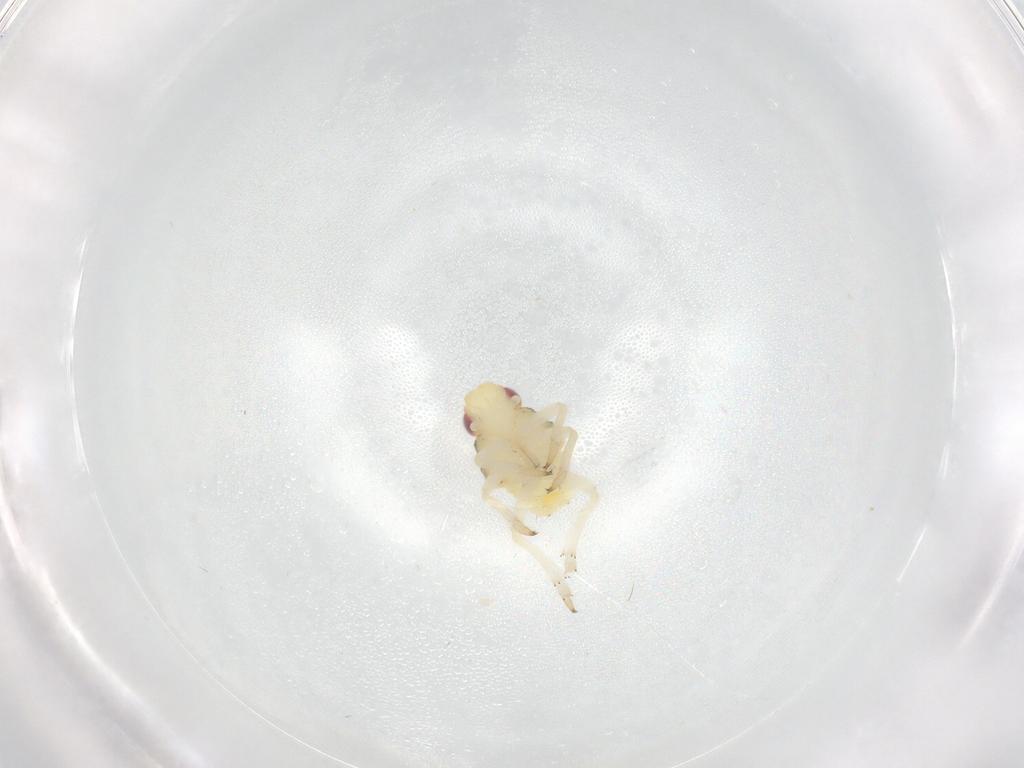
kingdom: Animalia
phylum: Arthropoda
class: Insecta
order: Hemiptera
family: Caliscelidae
